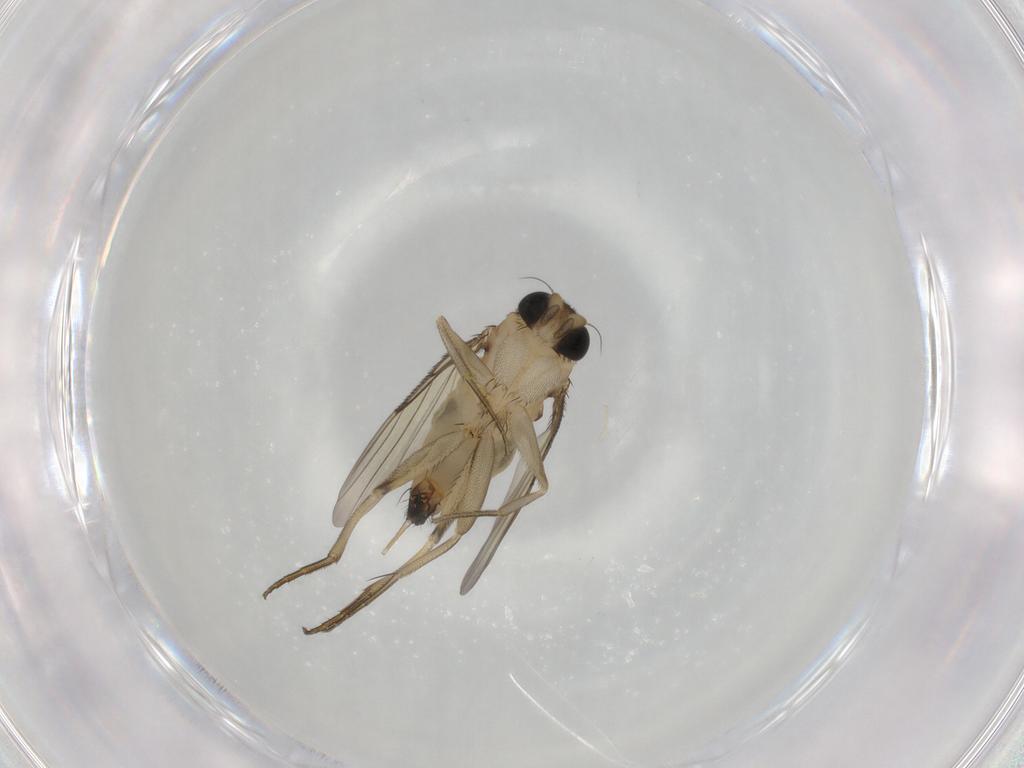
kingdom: Animalia
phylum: Arthropoda
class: Insecta
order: Diptera
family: Phoridae
